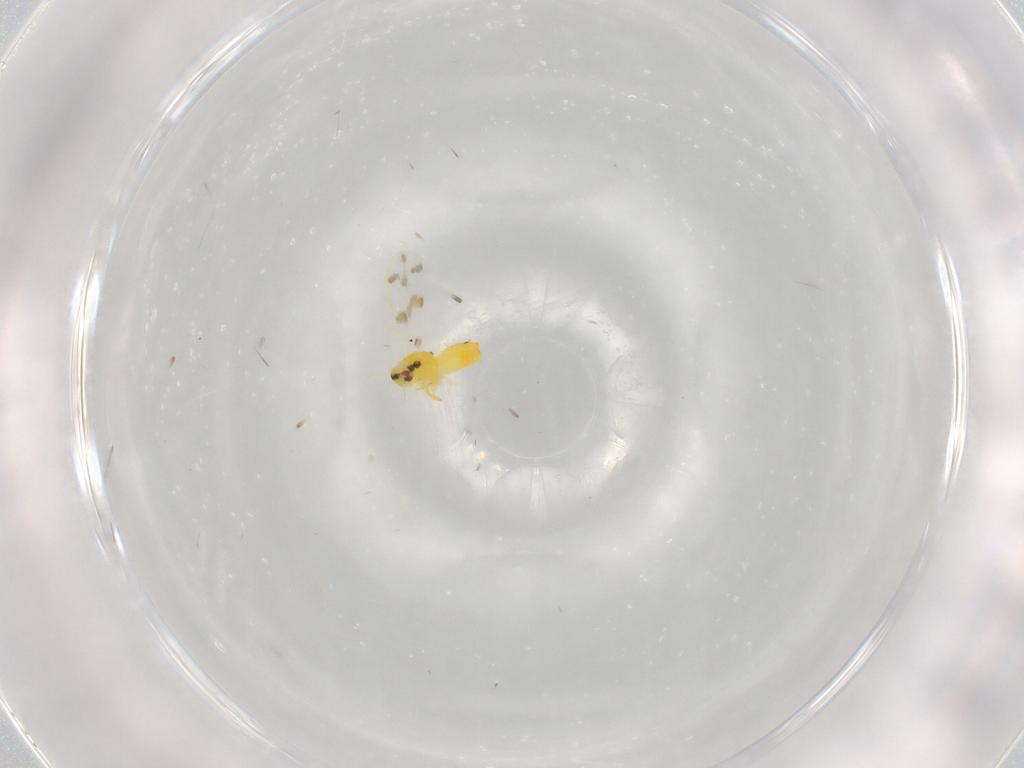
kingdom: Animalia
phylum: Arthropoda
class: Insecta
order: Hemiptera
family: Aleyrodidae
